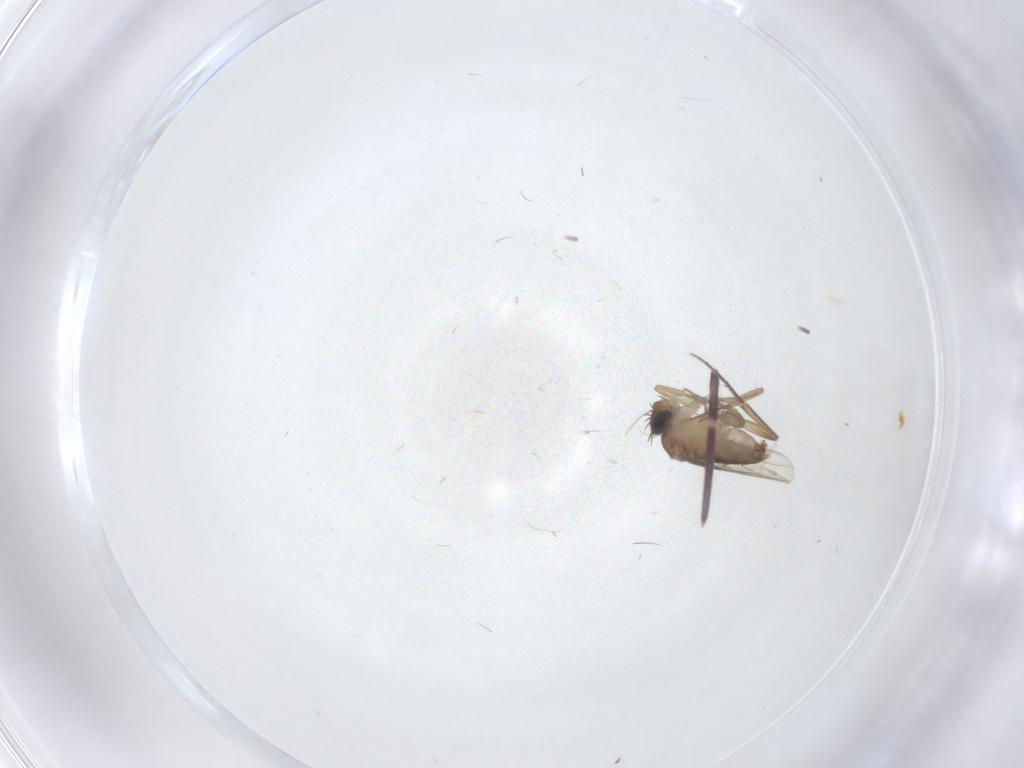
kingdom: Animalia
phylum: Arthropoda
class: Insecta
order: Diptera
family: Phoridae
